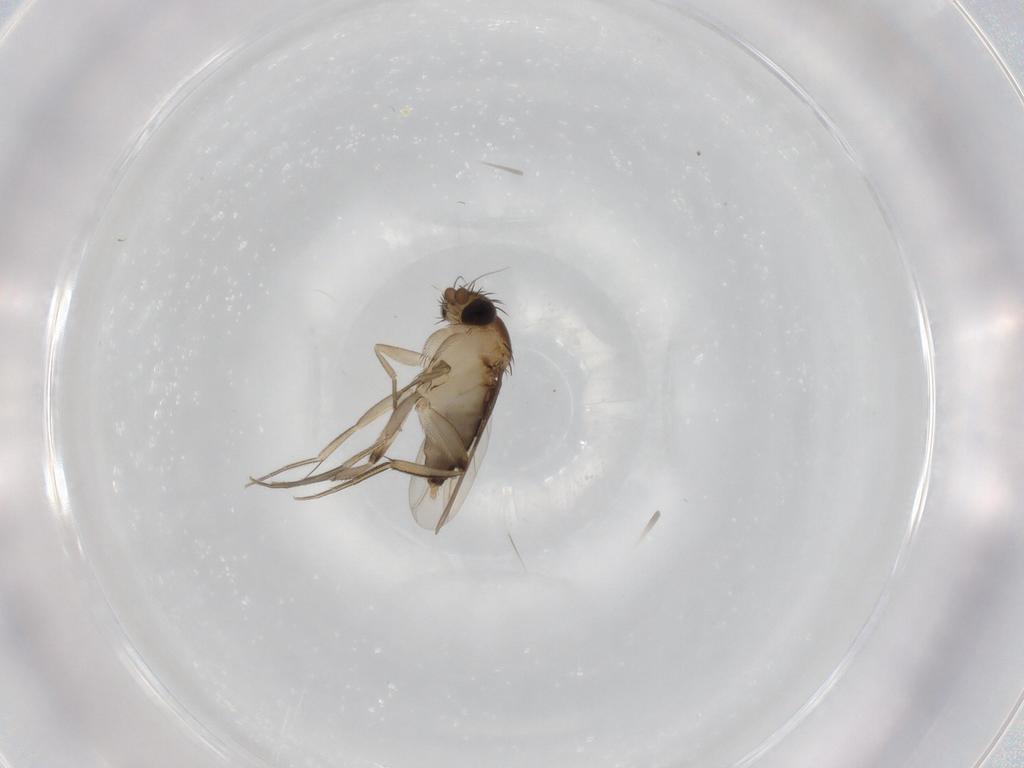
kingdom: Animalia
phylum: Arthropoda
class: Insecta
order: Diptera
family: Phoridae
